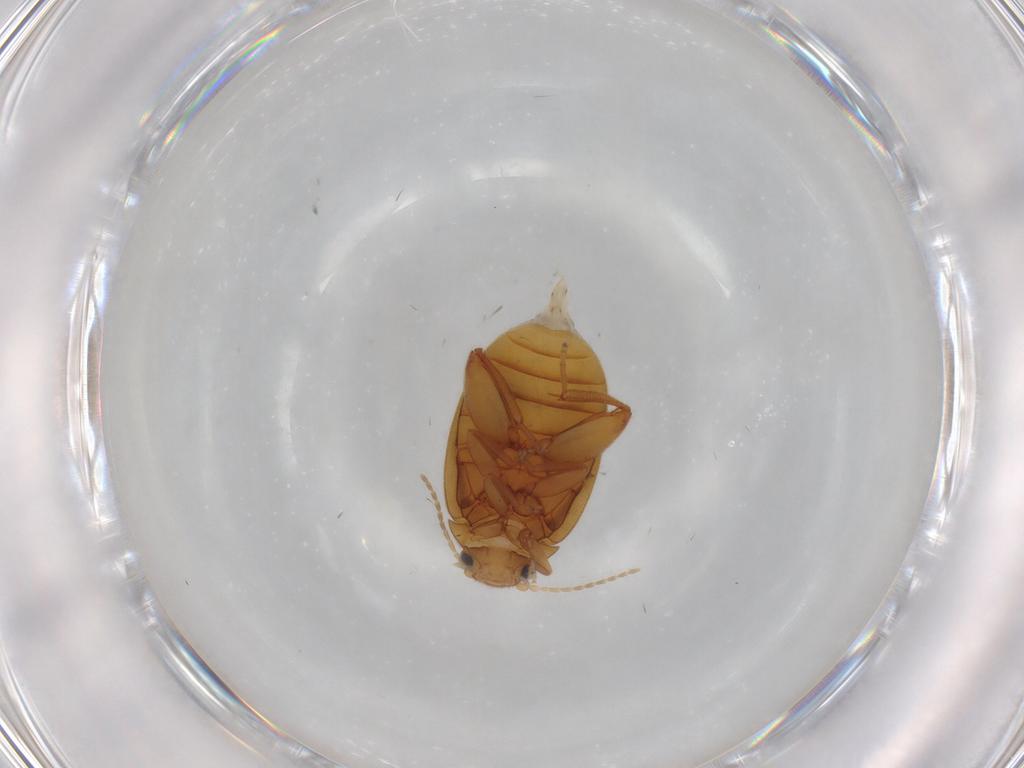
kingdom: Animalia
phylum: Arthropoda
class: Insecta
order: Coleoptera
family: Scirtidae
